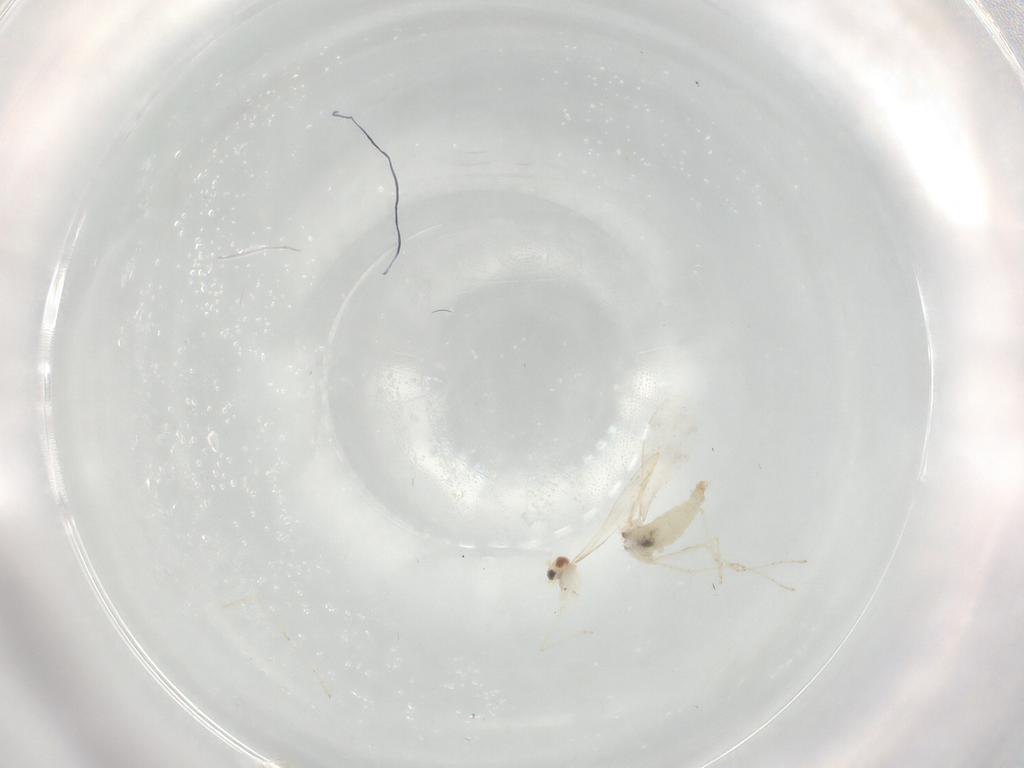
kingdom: Animalia
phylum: Arthropoda
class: Insecta
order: Diptera
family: Cecidomyiidae
